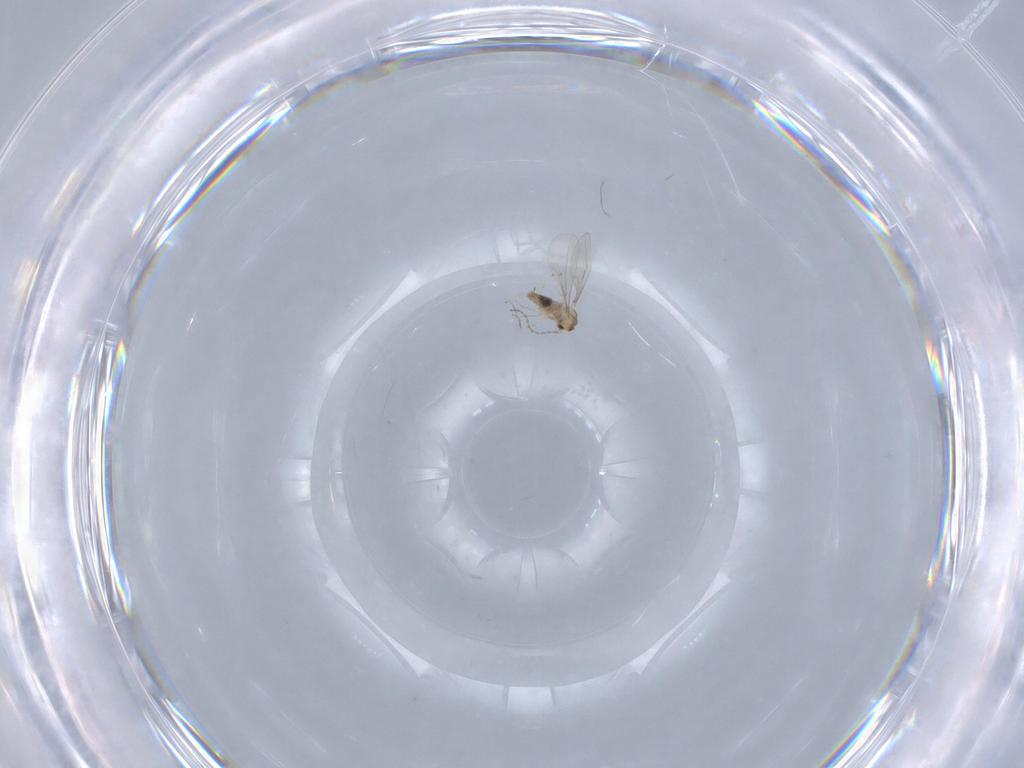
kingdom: Animalia
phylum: Arthropoda
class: Insecta
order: Diptera
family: Cecidomyiidae
